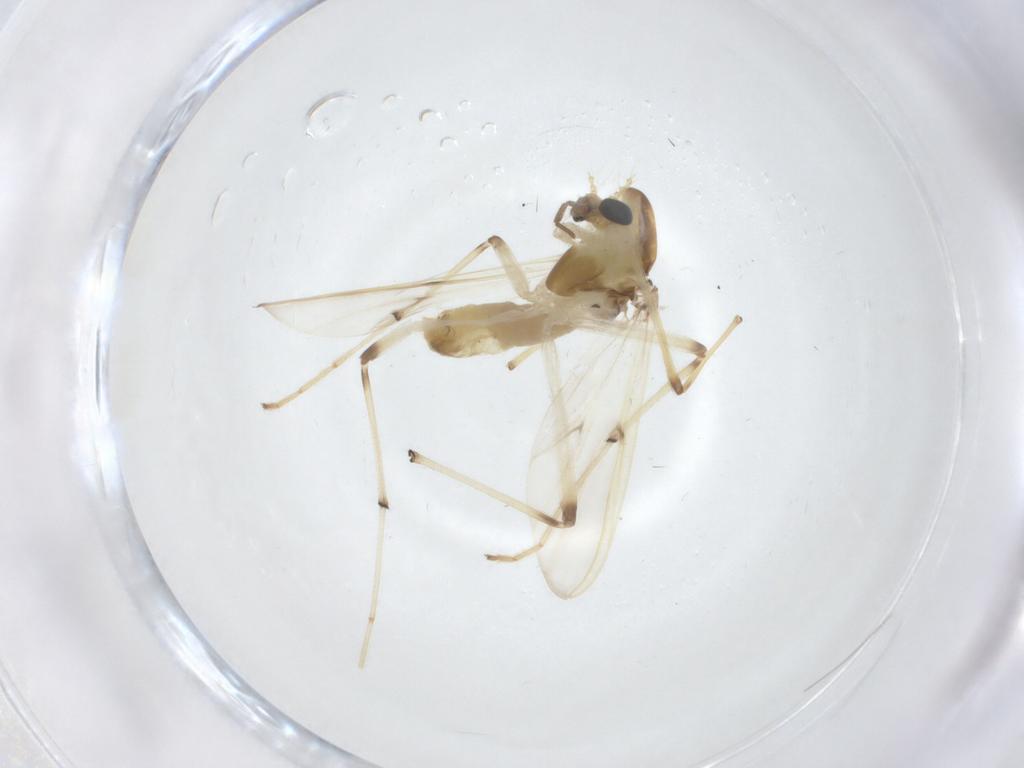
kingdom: Animalia
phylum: Arthropoda
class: Insecta
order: Diptera
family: Chironomidae
